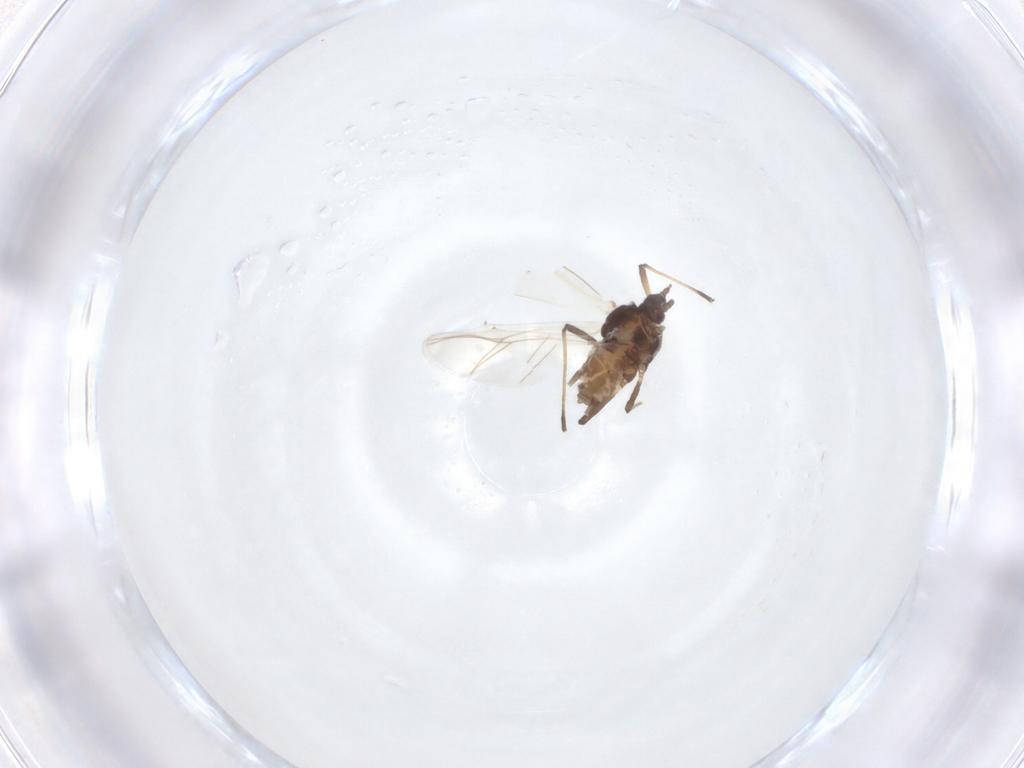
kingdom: Animalia
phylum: Arthropoda
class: Insecta
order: Hemiptera
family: Aphididae
